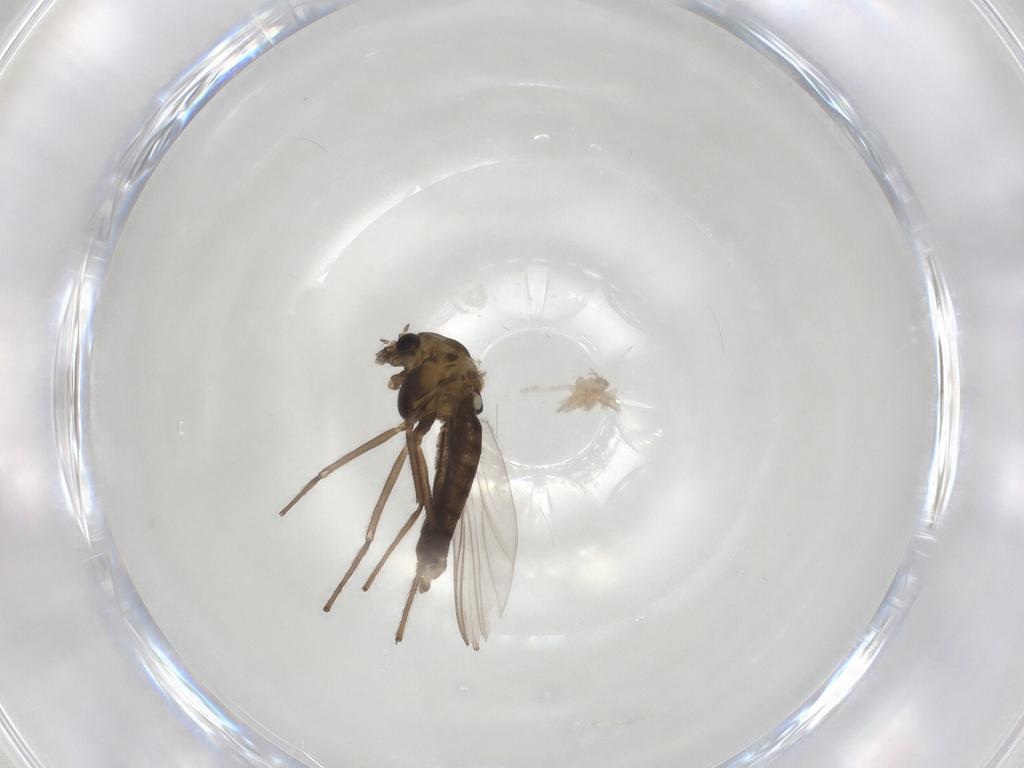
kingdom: Animalia
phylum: Arthropoda
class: Insecta
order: Diptera
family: Chironomidae
